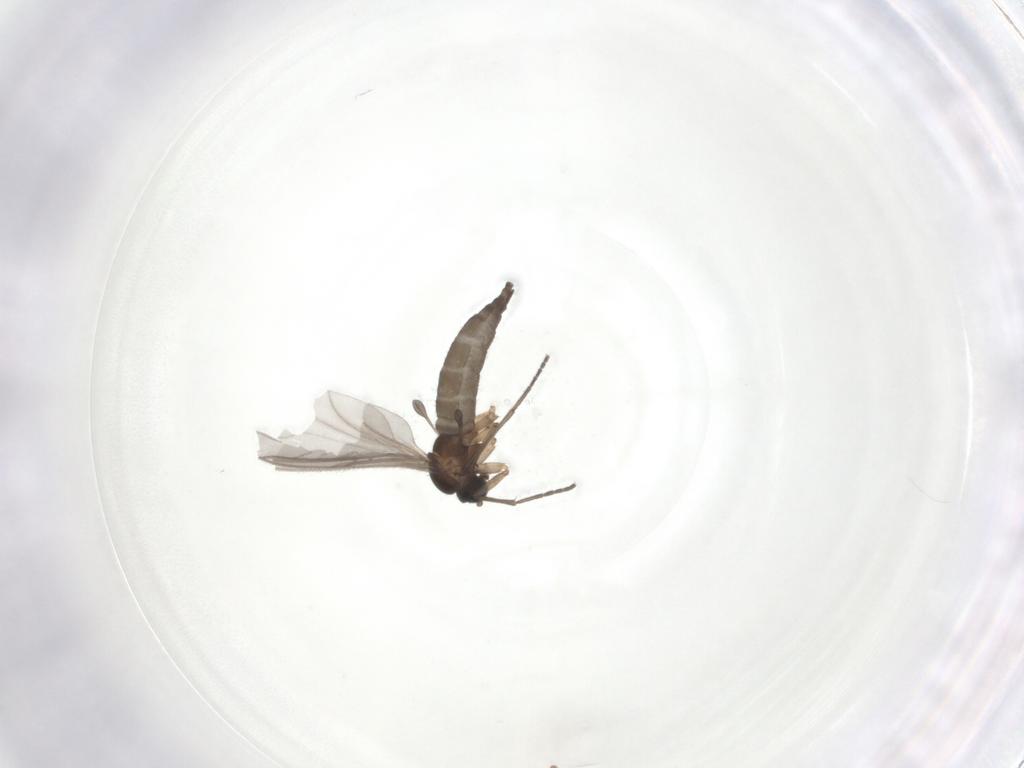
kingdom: Animalia
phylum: Arthropoda
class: Insecta
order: Diptera
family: Sciaridae
